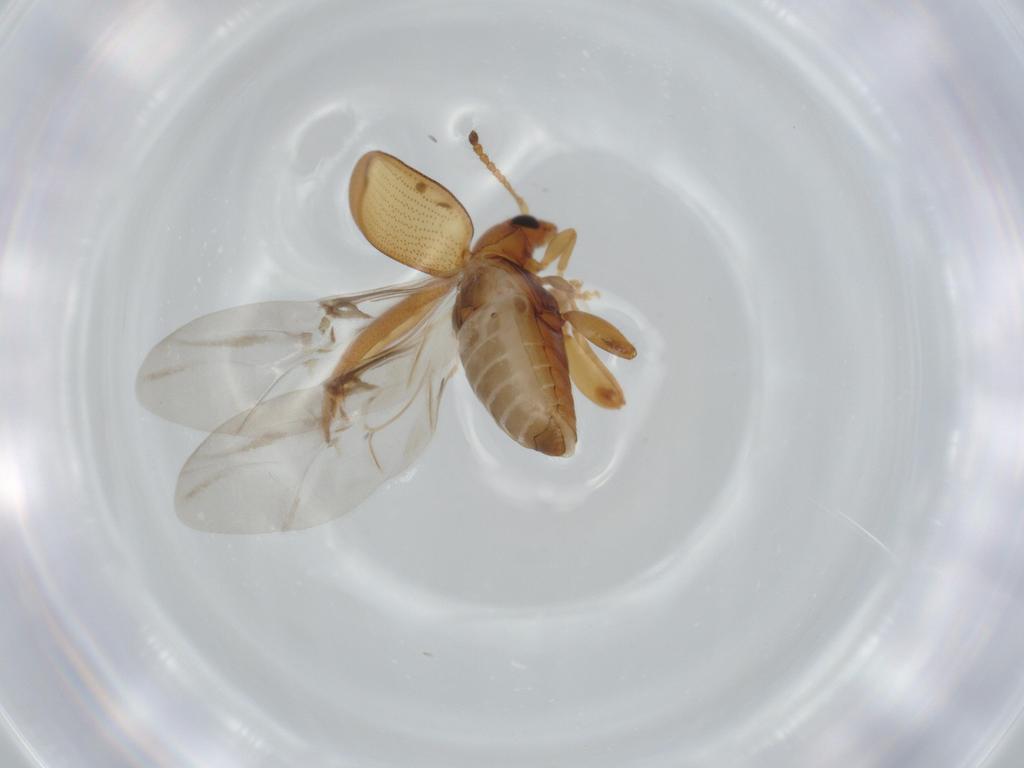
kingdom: Animalia
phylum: Arthropoda
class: Insecta
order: Coleoptera
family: Chrysomelidae
